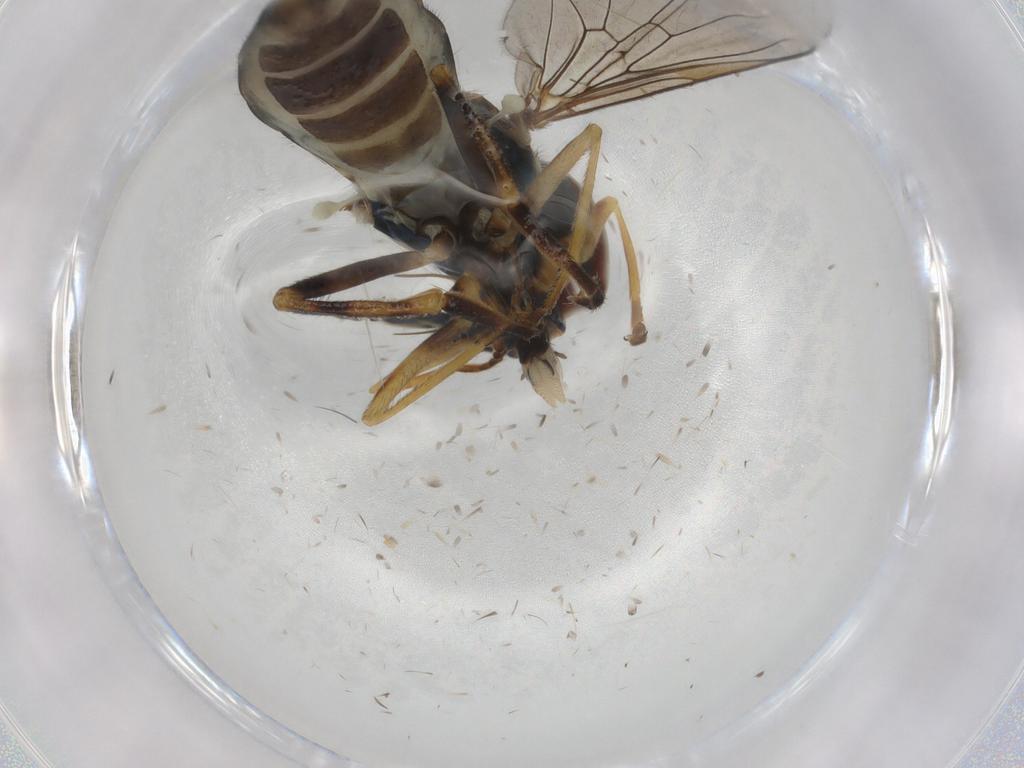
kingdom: Animalia
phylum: Arthropoda
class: Insecta
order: Diptera
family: Syrphidae
